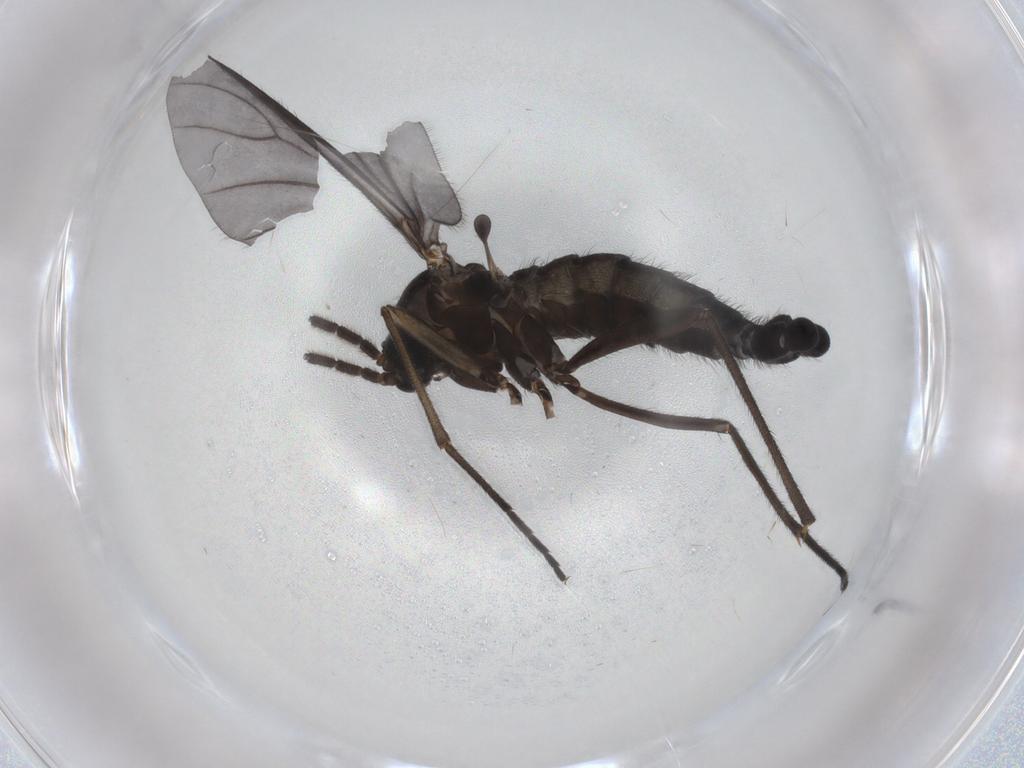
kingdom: Animalia
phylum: Arthropoda
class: Insecta
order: Diptera
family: Sciaridae
